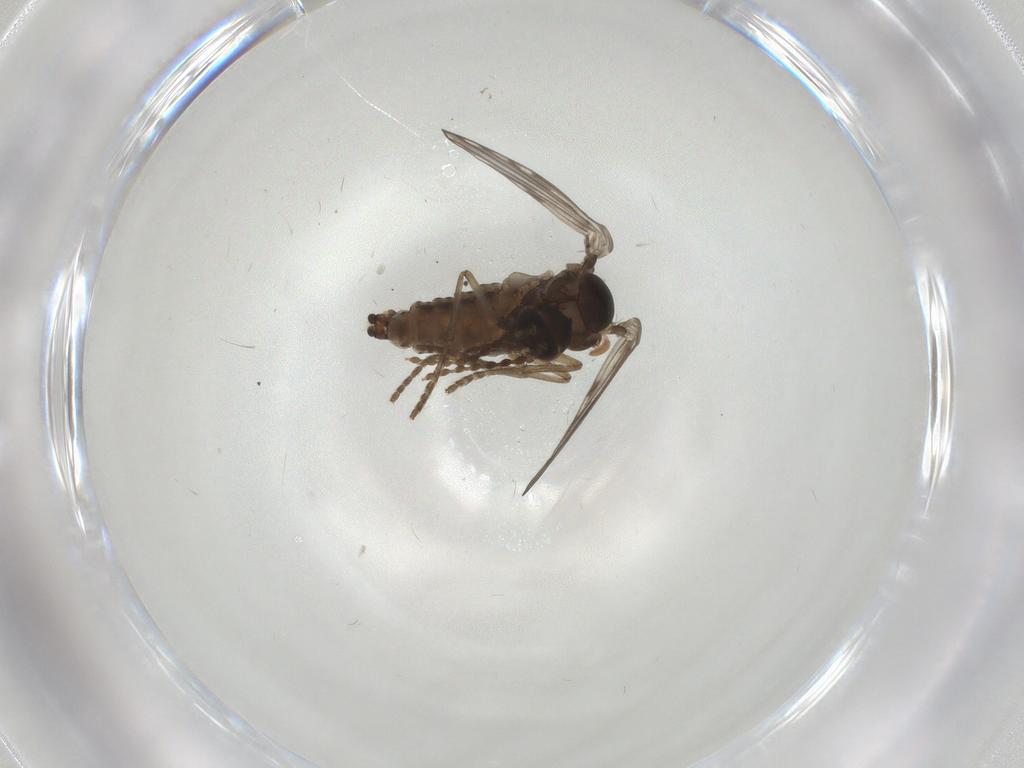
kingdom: Animalia
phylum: Arthropoda
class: Insecta
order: Diptera
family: Psychodidae
